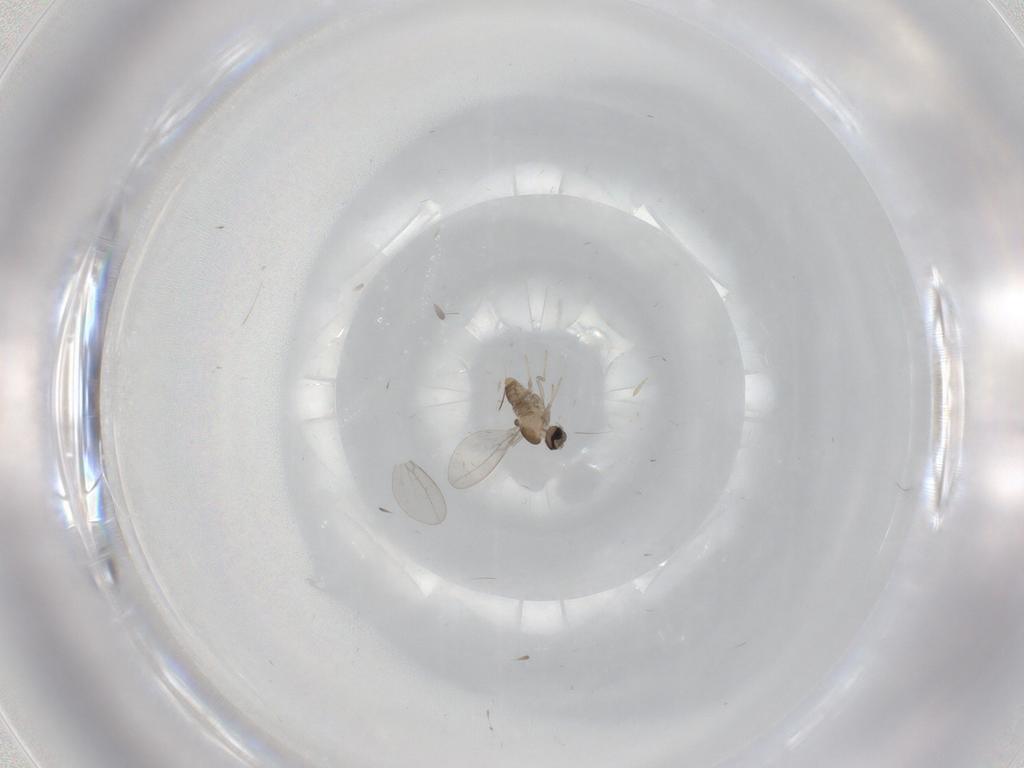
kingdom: Animalia
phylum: Arthropoda
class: Insecta
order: Diptera
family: Cecidomyiidae
